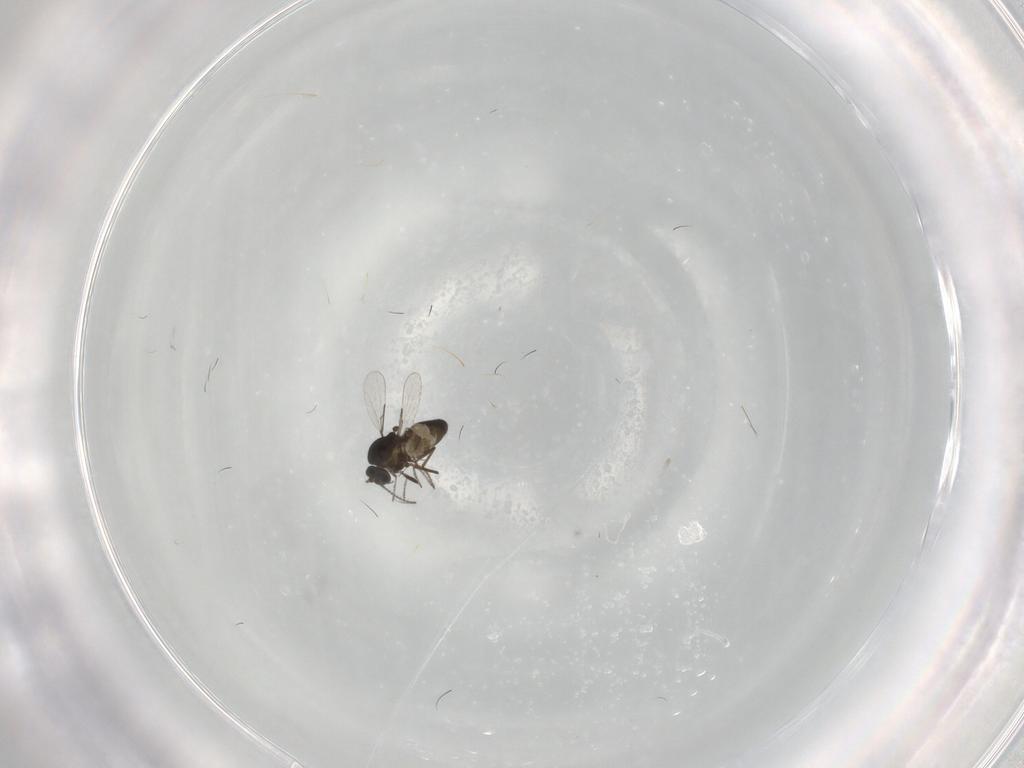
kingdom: Animalia
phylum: Arthropoda
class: Insecta
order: Diptera
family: Ceratopogonidae
